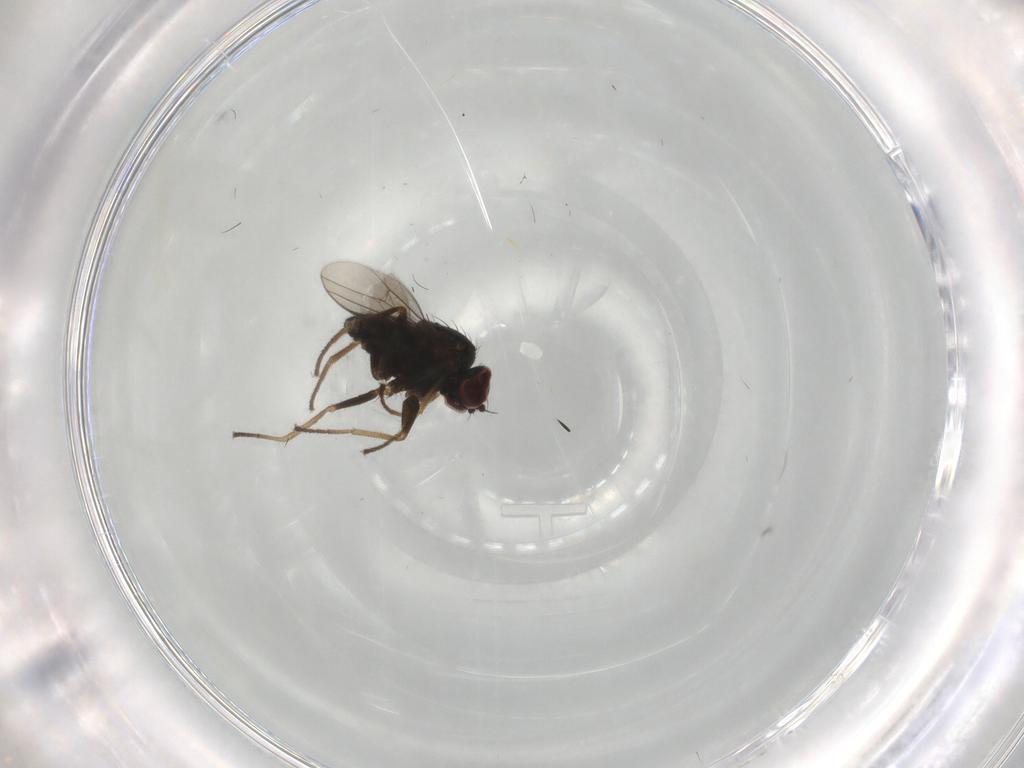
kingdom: Animalia
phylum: Arthropoda
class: Insecta
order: Diptera
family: Dolichopodidae
